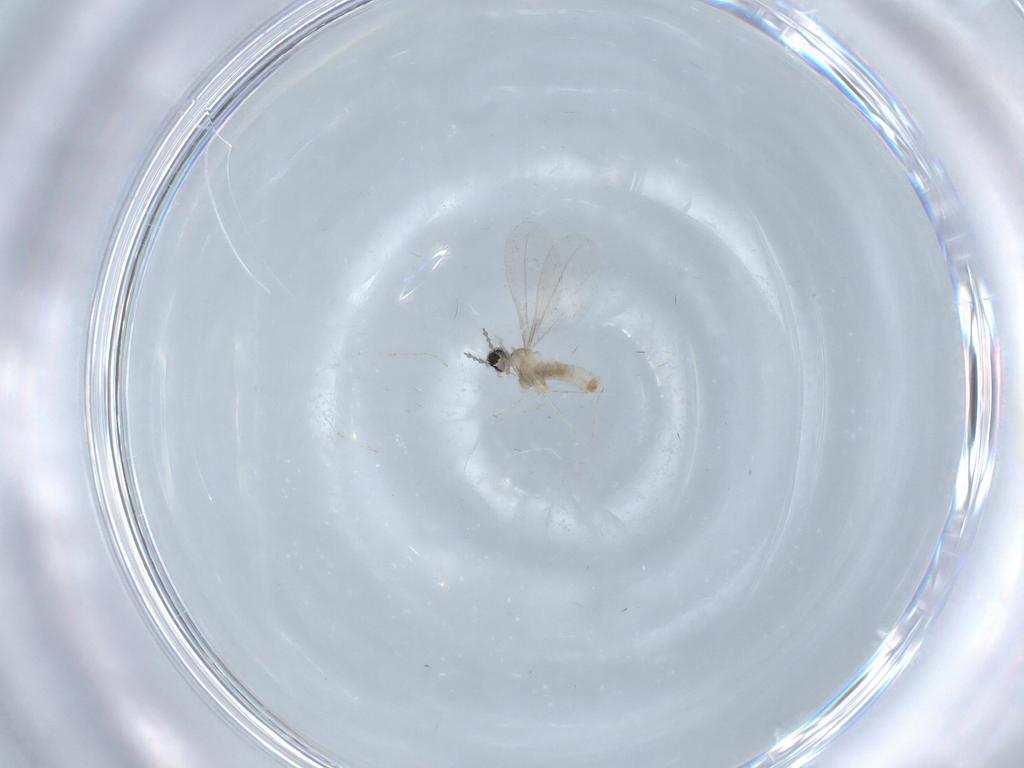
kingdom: Animalia
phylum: Arthropoda
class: Insecta
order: Diptera
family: Cecidomyiidae
